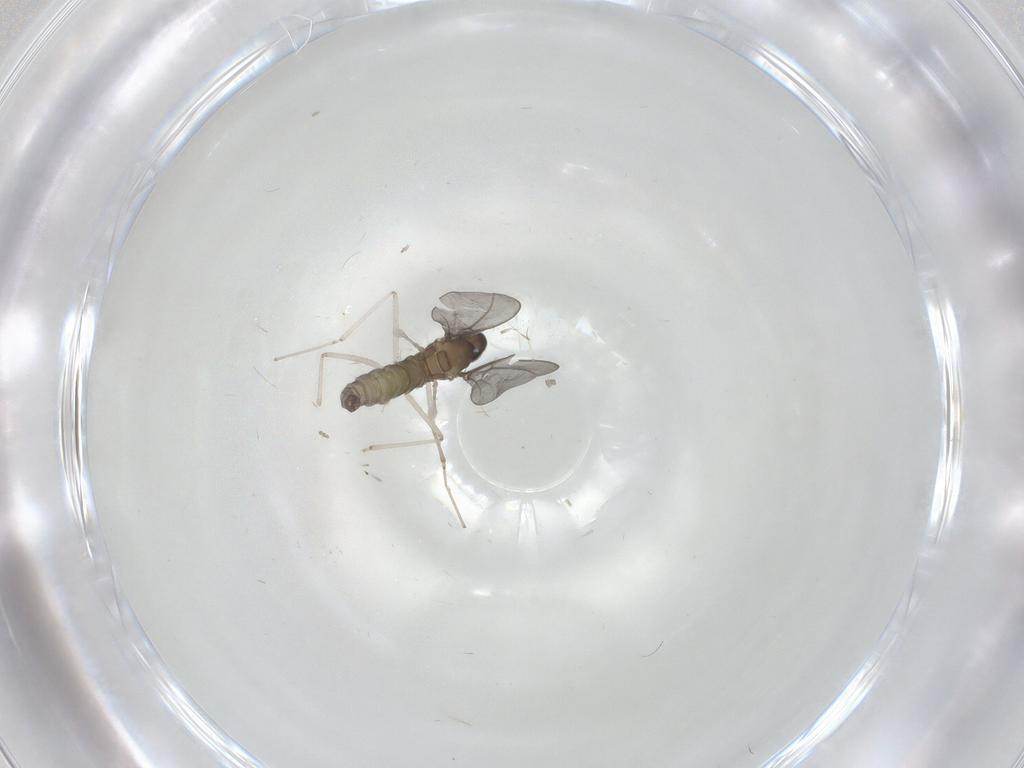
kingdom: Animalia
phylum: Arthropoda
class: Insecta
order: Diptera
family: Cecidomyiidae
